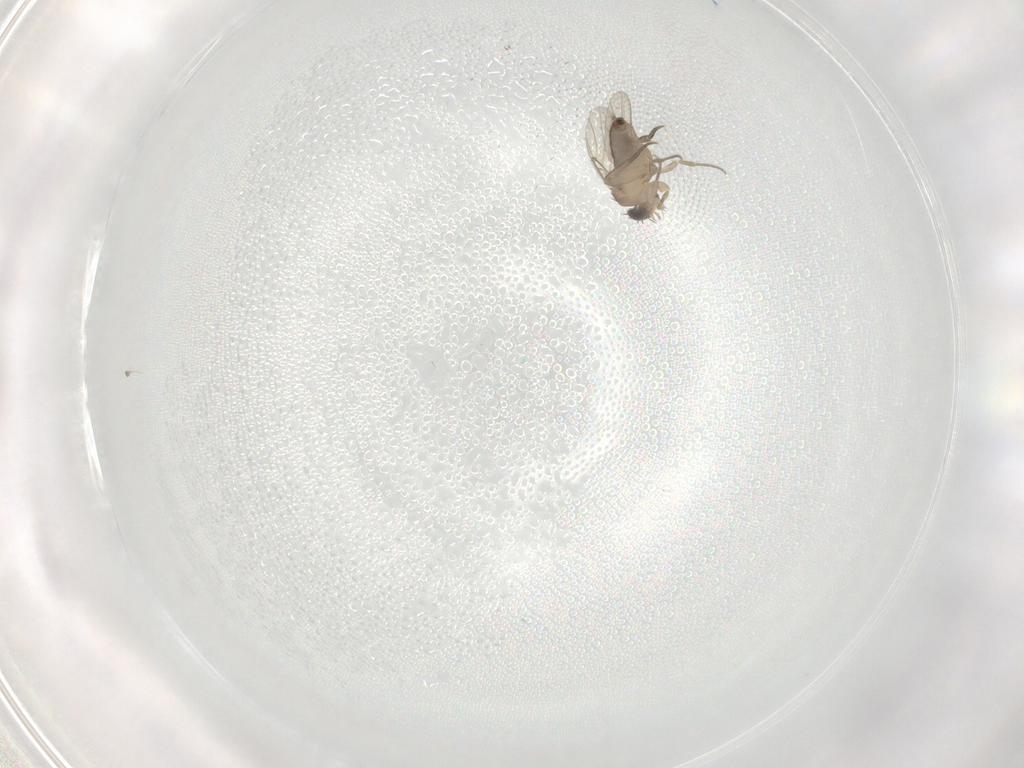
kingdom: Animalia
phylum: Arthropoda
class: Insecta
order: Diptera
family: Phoridae
